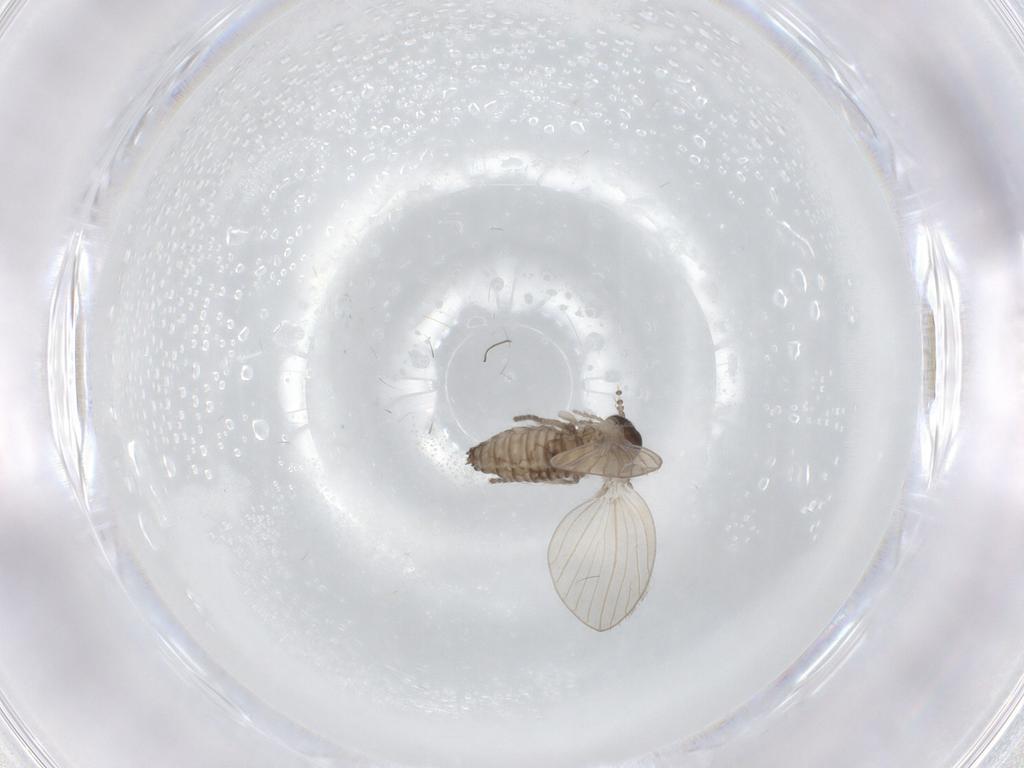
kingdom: Animalia
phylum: Arthropoda
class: Insecta
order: Diptera
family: Psychodidae
